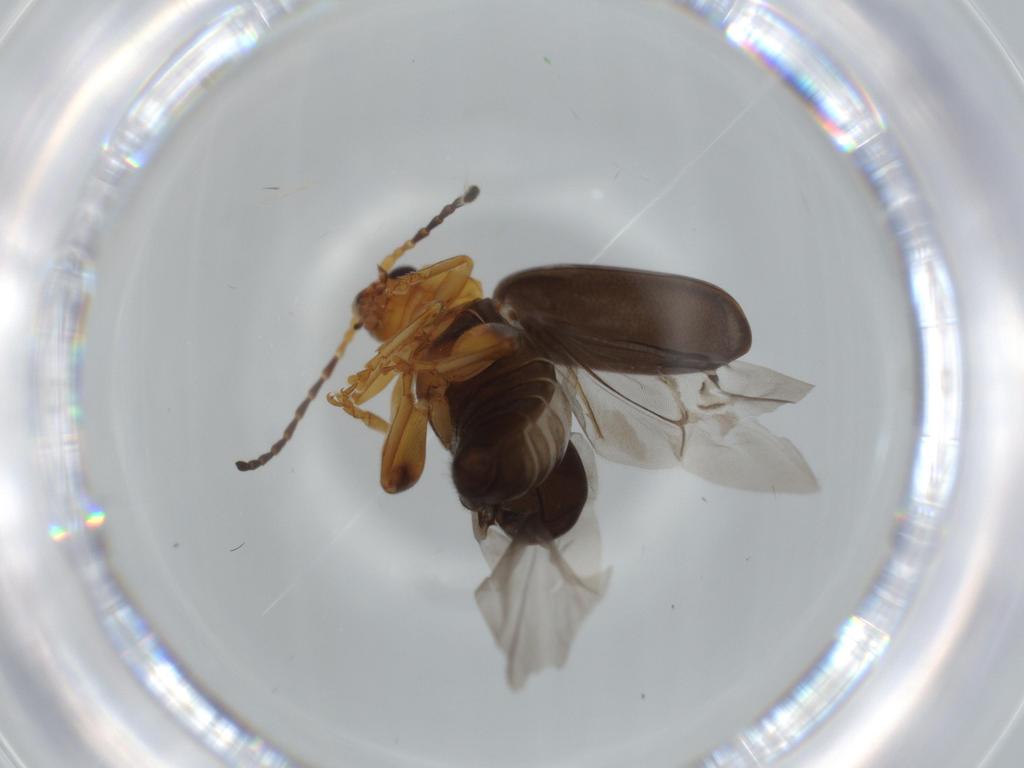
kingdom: Animalia
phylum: Arthropoda
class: Insecta
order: Coleoptera
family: Chrysomelidae
